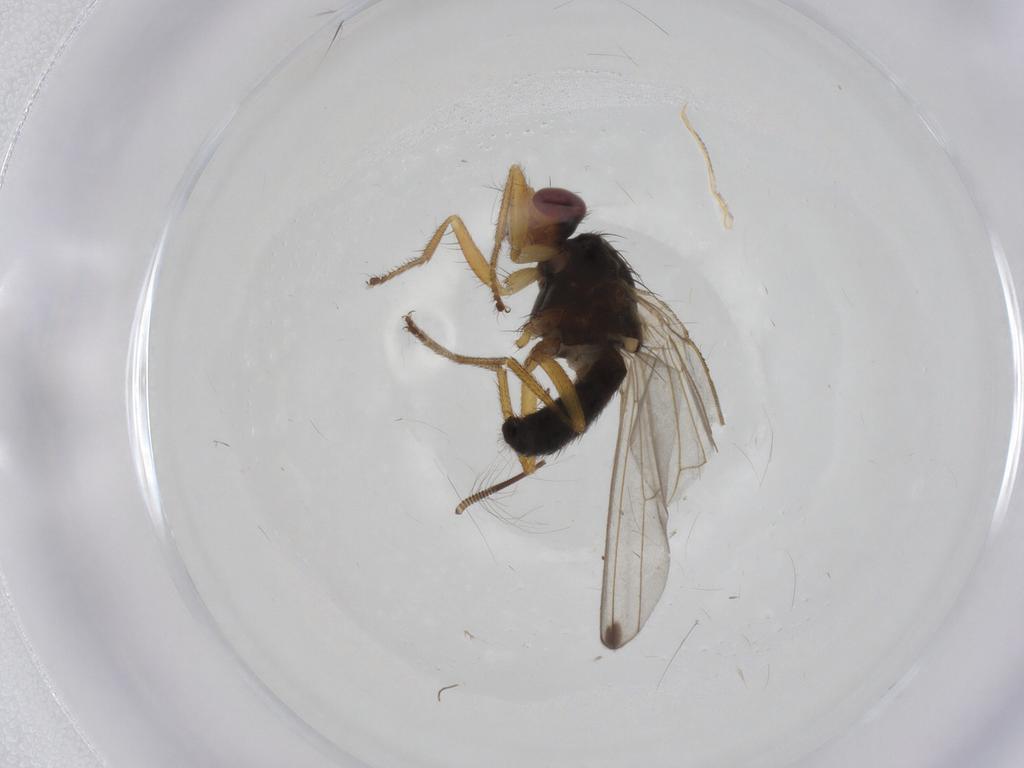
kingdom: Animalia
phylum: Arthropoda
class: Insecta
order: Diptera
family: Drosophilidae
